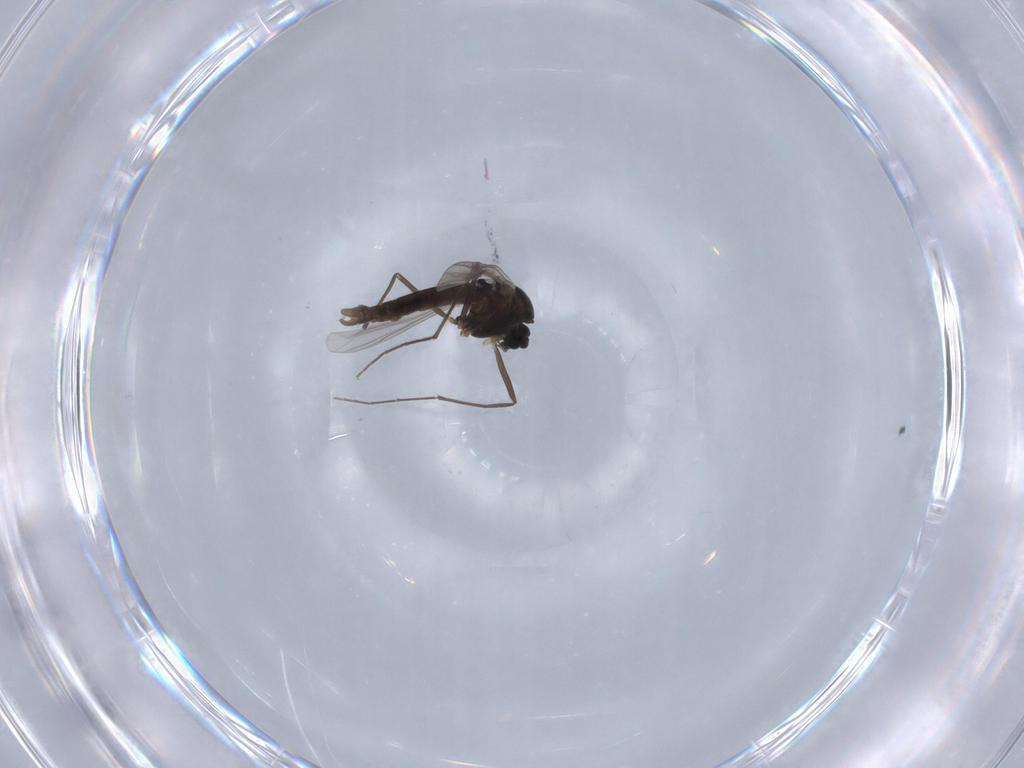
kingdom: Animalia
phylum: Arthropoda
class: Insecta
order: Diptera
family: Chironomidae
